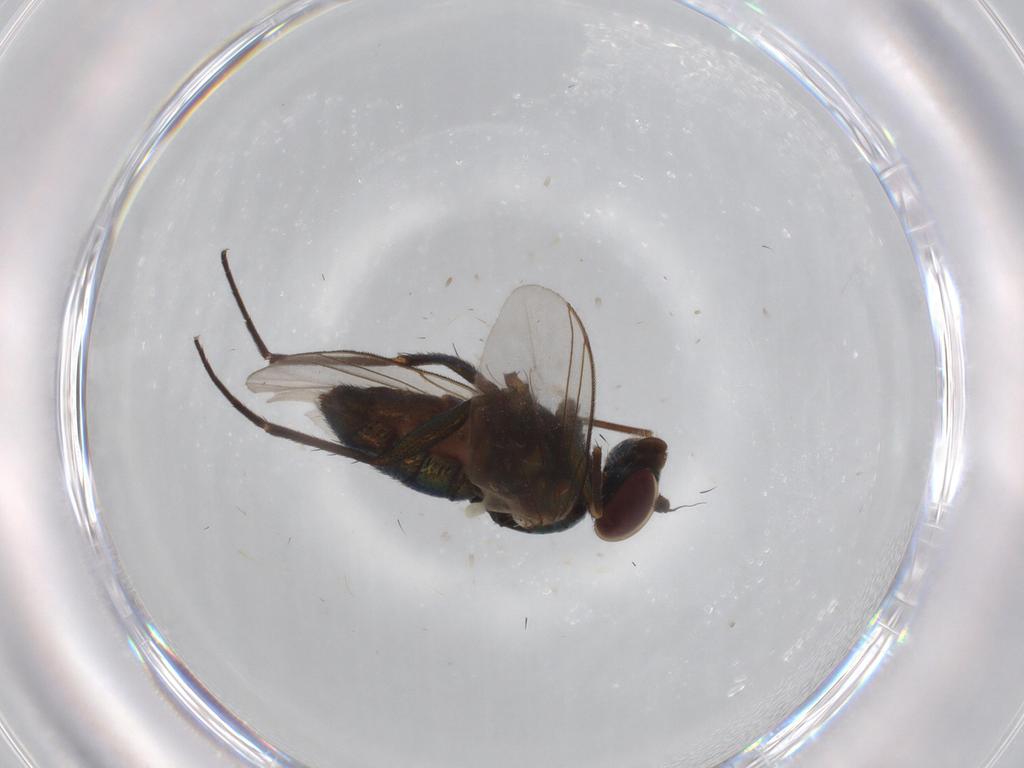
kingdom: Animalia
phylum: Arthropoda
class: Insecta
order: Diptera
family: Dolichopodidae
